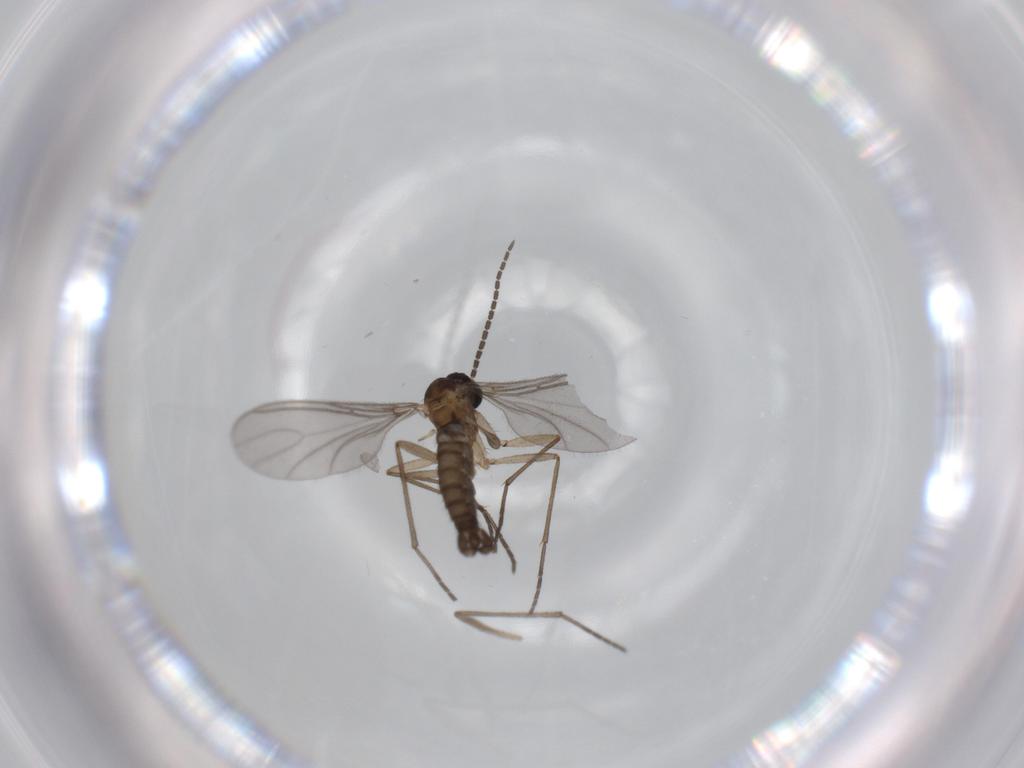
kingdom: Animalia
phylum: Arthropoda
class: Insecta
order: Diptera
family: Sciaridae
